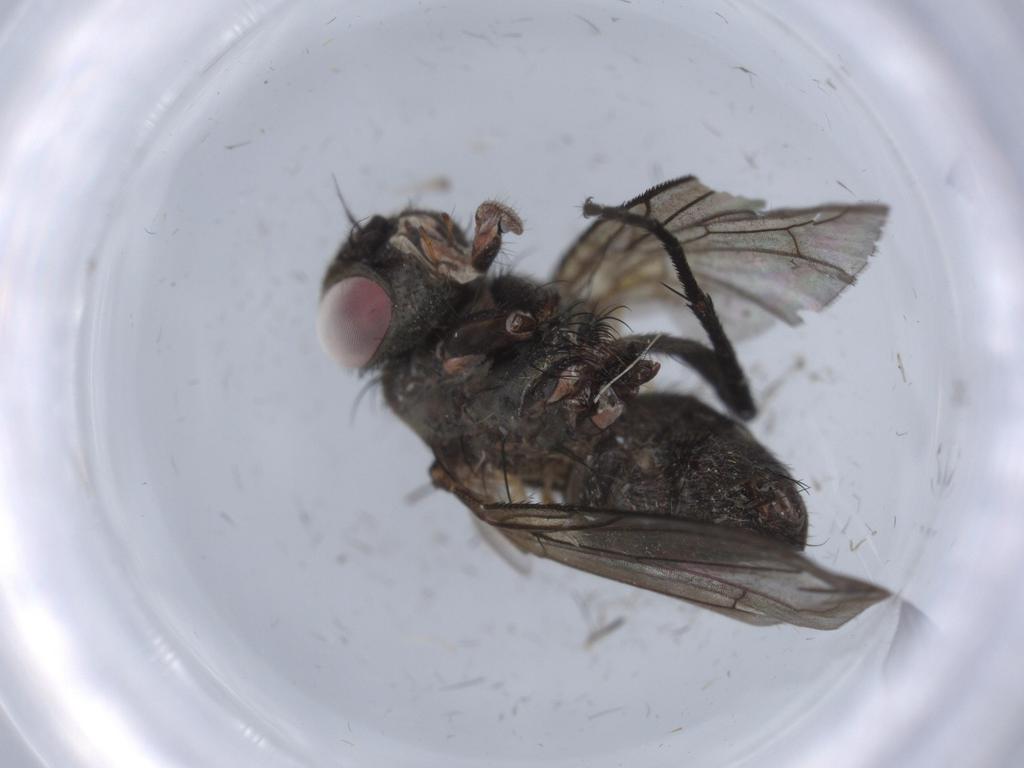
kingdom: Animalia
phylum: Arthropoda
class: Insecta
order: Diptera
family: Calliphoridae
